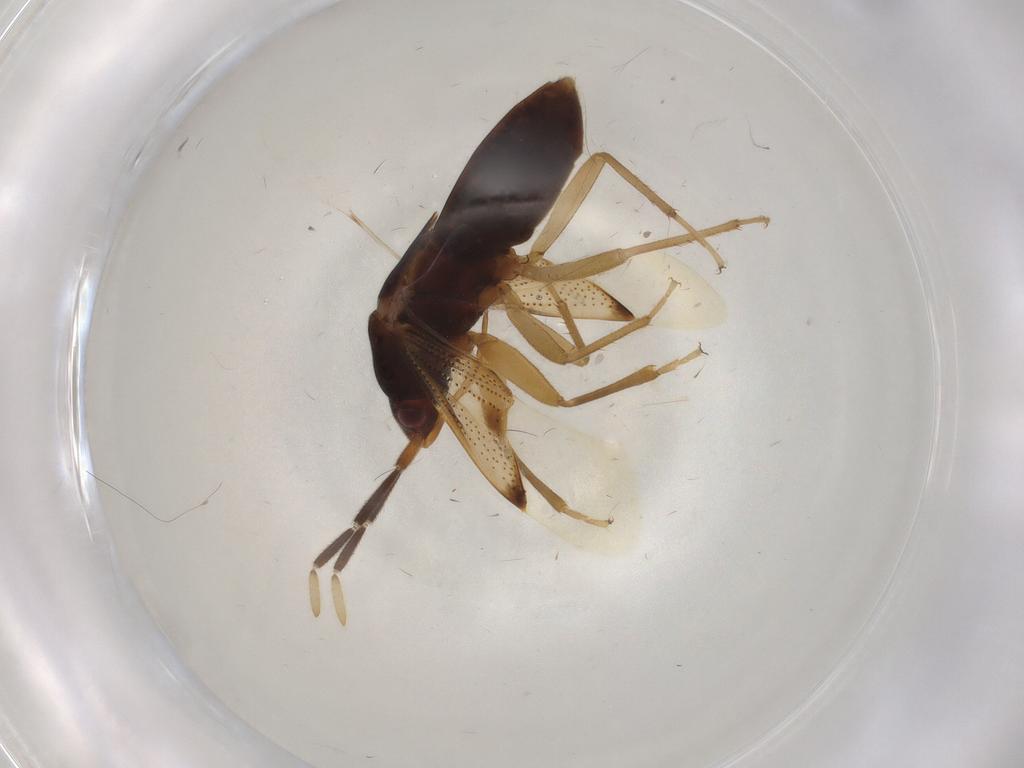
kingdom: Animalia
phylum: Arthropoda
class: Insecta
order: Hemiptera
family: Rhyparochromidae
